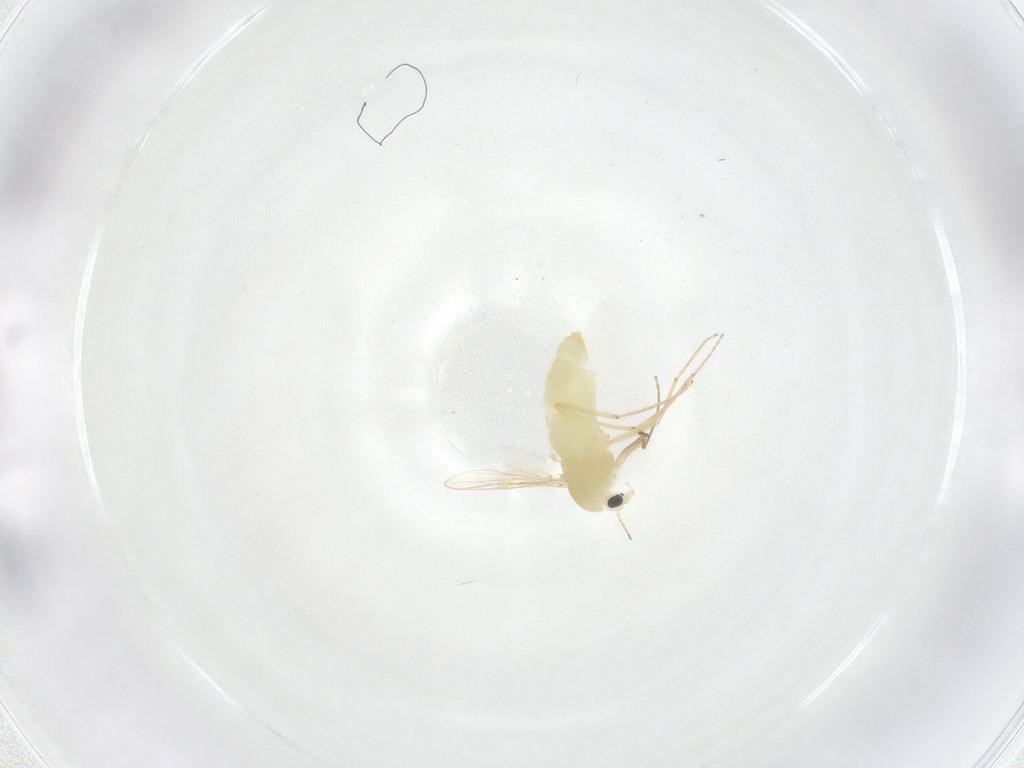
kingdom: Animalia
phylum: Arthropoda
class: Insecta
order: Diptera
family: Chironomidae
